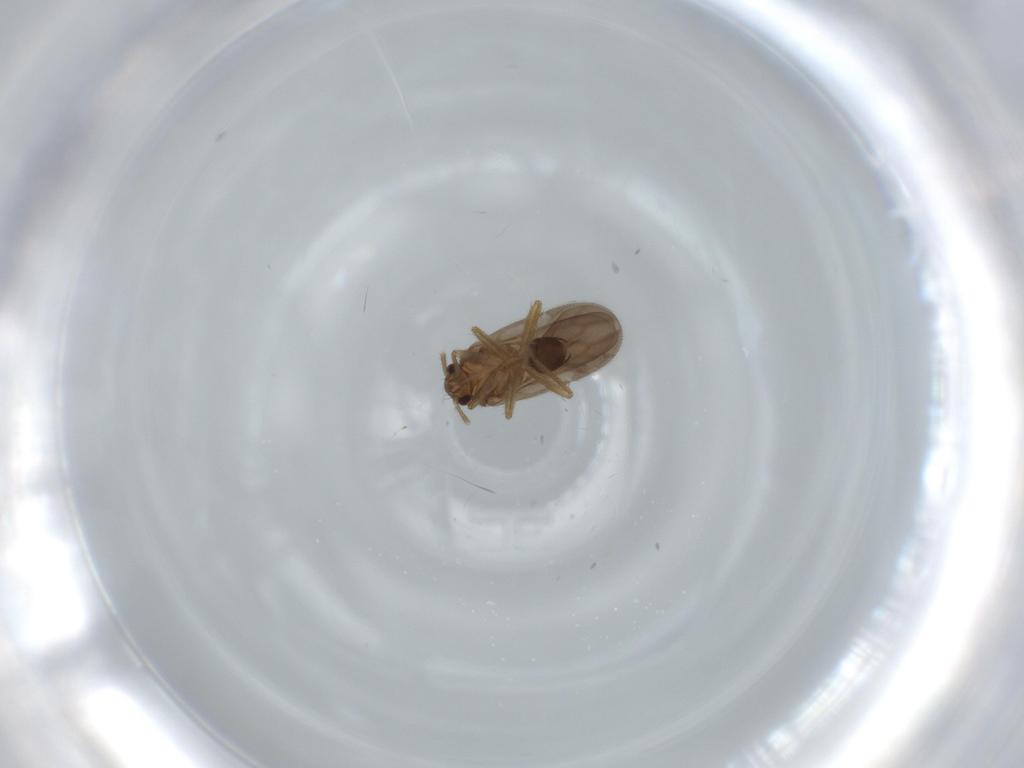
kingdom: Animalia
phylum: Arthropoda
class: Insecta
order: Hemiptera
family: Ceratocombidae
